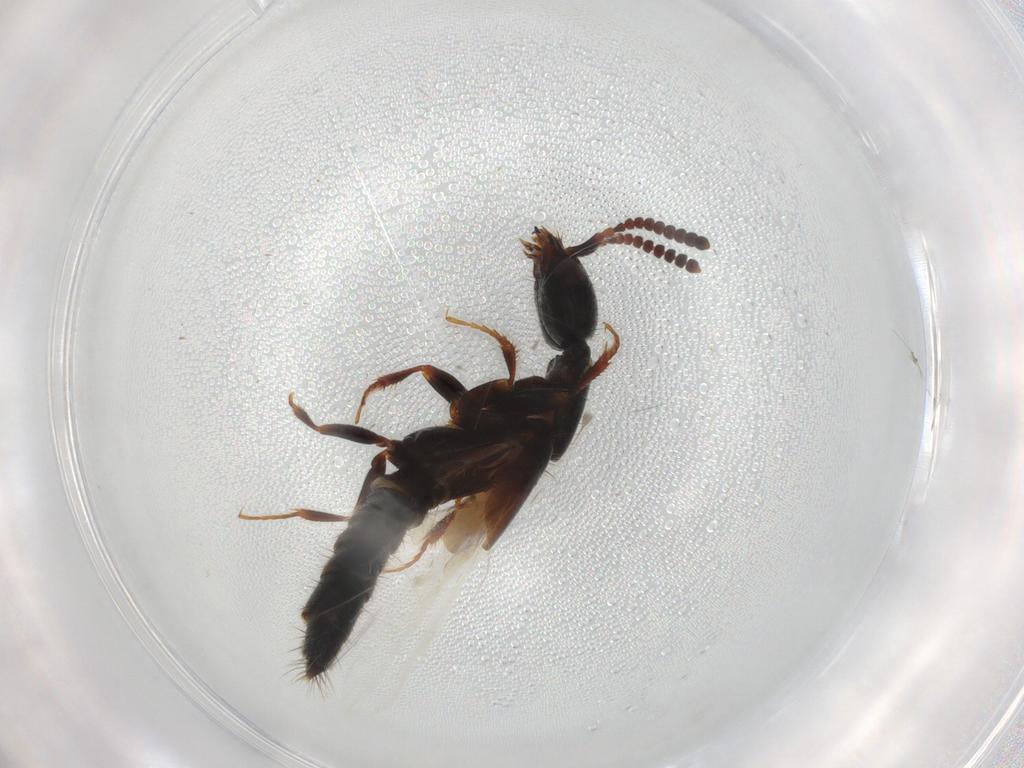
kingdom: Animalia
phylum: Arthropoda
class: Insecta
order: Coleoptera
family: Staphylinidae
